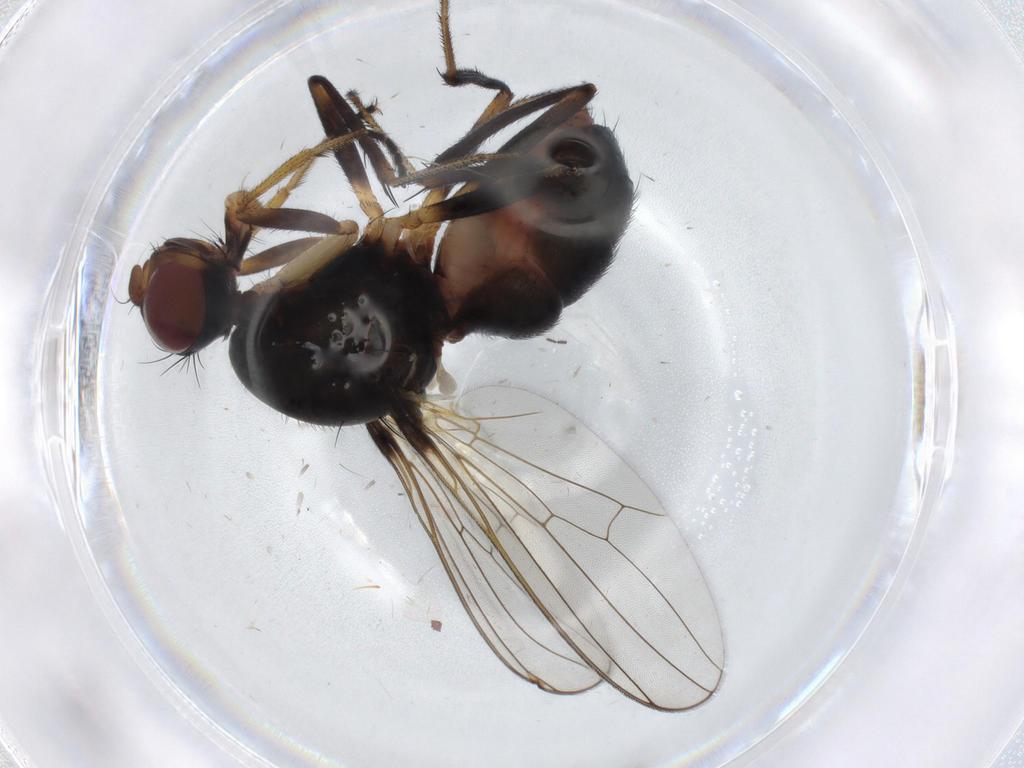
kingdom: Animalia
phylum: Arthropoda
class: Insecta
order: Diptera
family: Sepsidae
